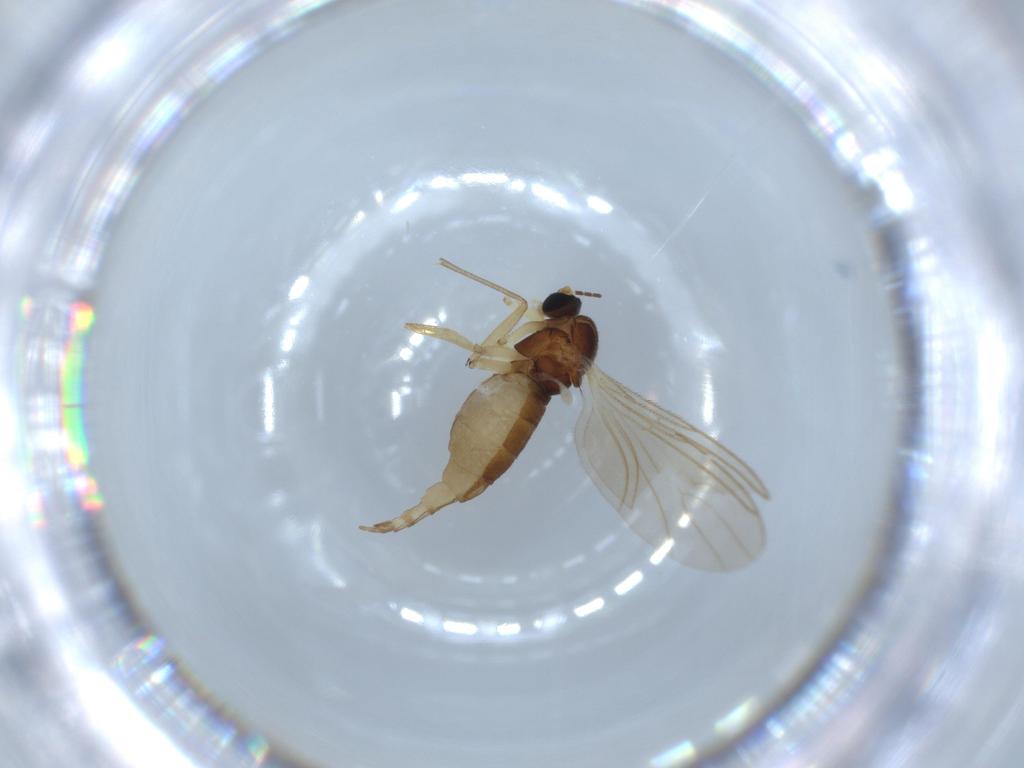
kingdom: Animalia
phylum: Arthropoda
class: Insecta
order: Diptera
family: Sciaridae
